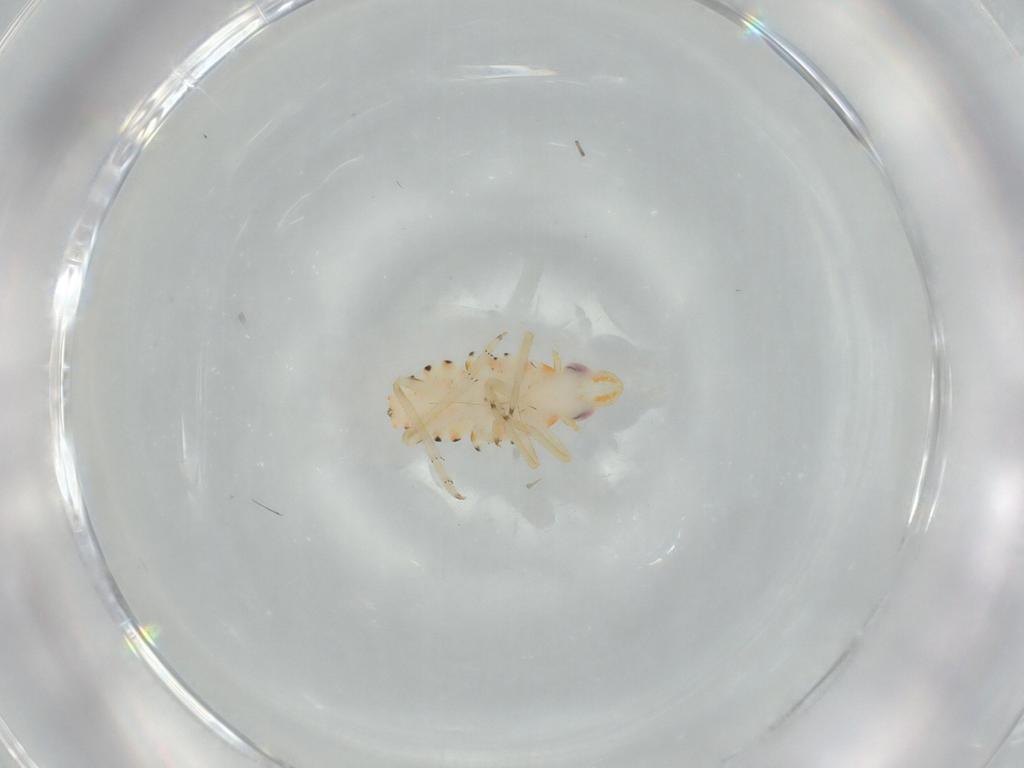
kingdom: Animalia
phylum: Arthropoda
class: Insecta
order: Hemiptera
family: Tropiduchidae
